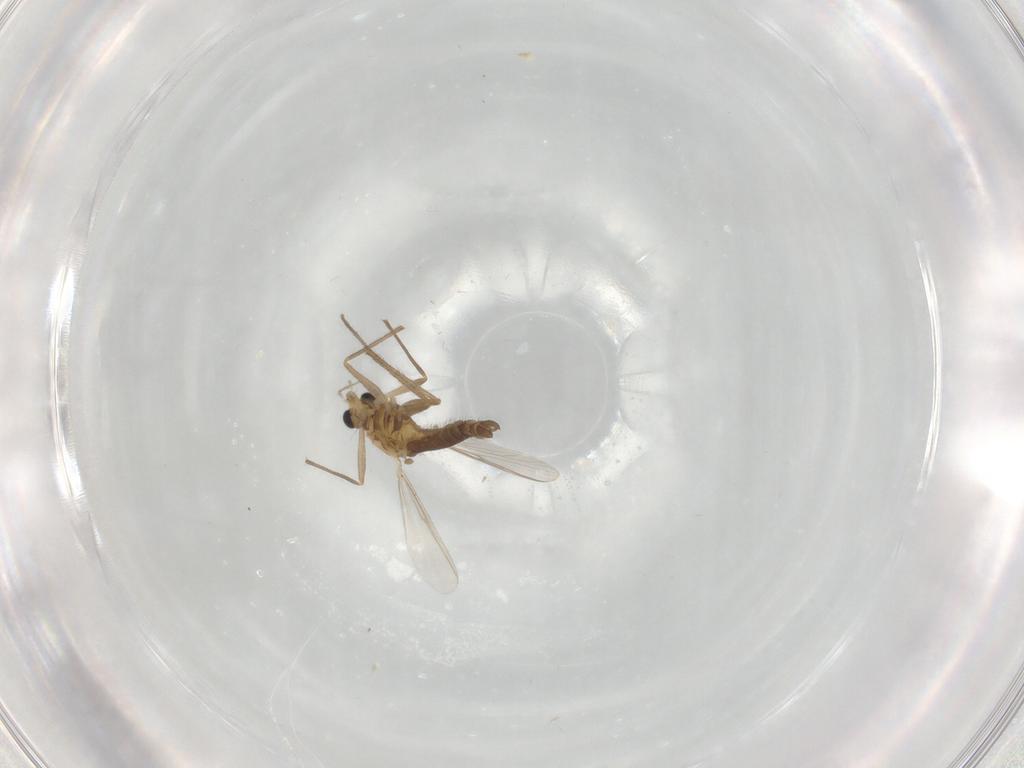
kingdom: Animalia
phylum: Arthropoda
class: Insecta
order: Diptera
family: Chironomidae
